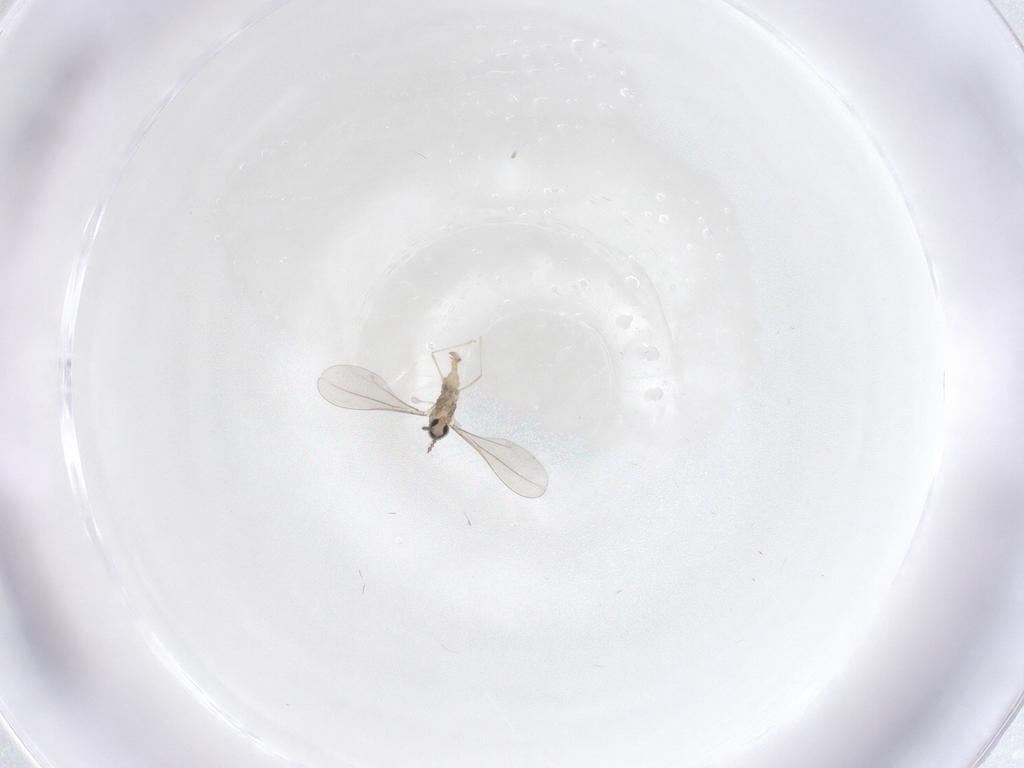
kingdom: Animalia
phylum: Arthropoda
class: Insecta
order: Diptera
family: Cecidomyiidae
